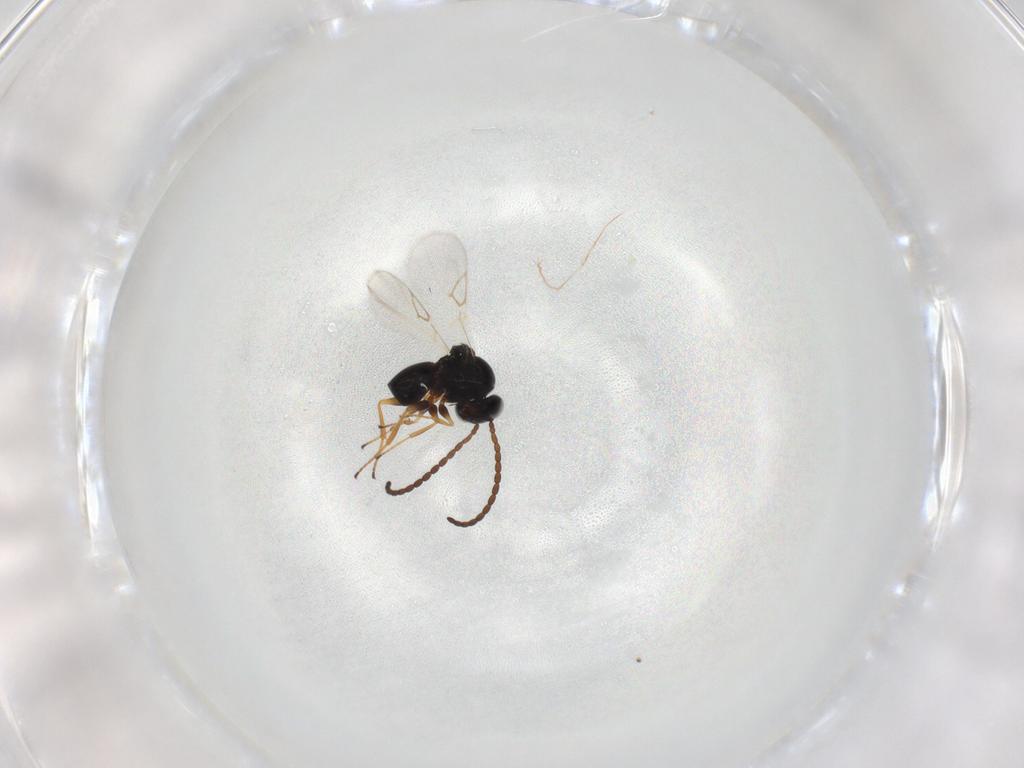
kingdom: Animalia
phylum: Arthropoda
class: Insecta
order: Hymenoptera
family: Figitidae
